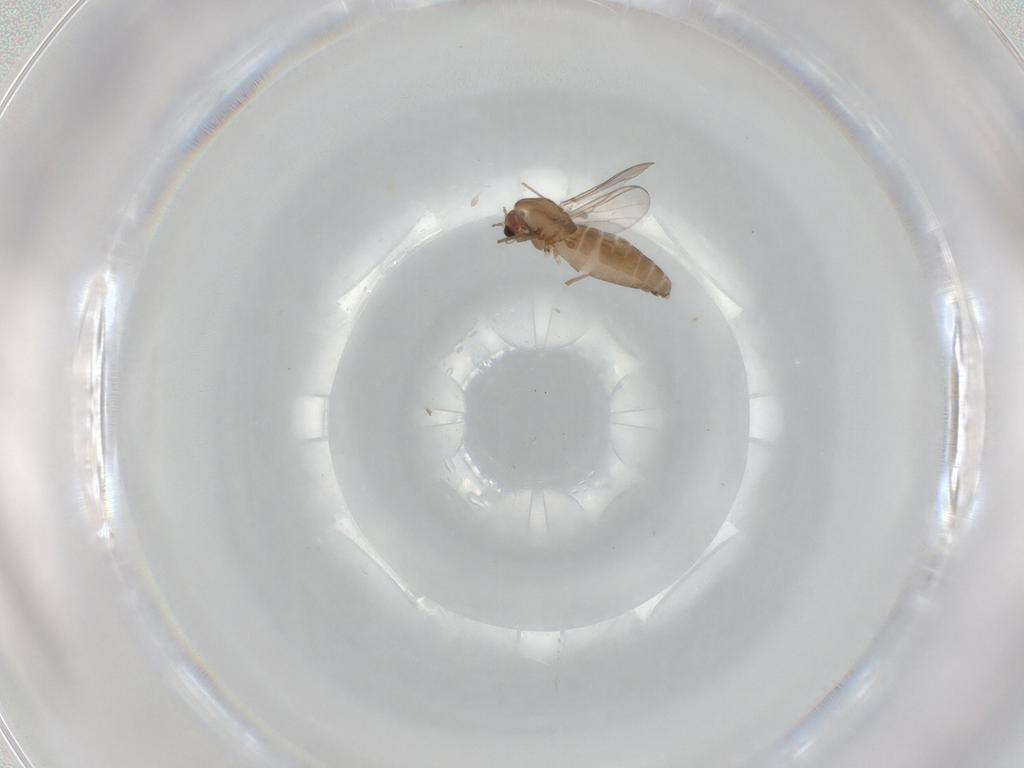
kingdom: Animalia
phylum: Arthropoda
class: Insecta
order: Diptera
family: Chironomidae
